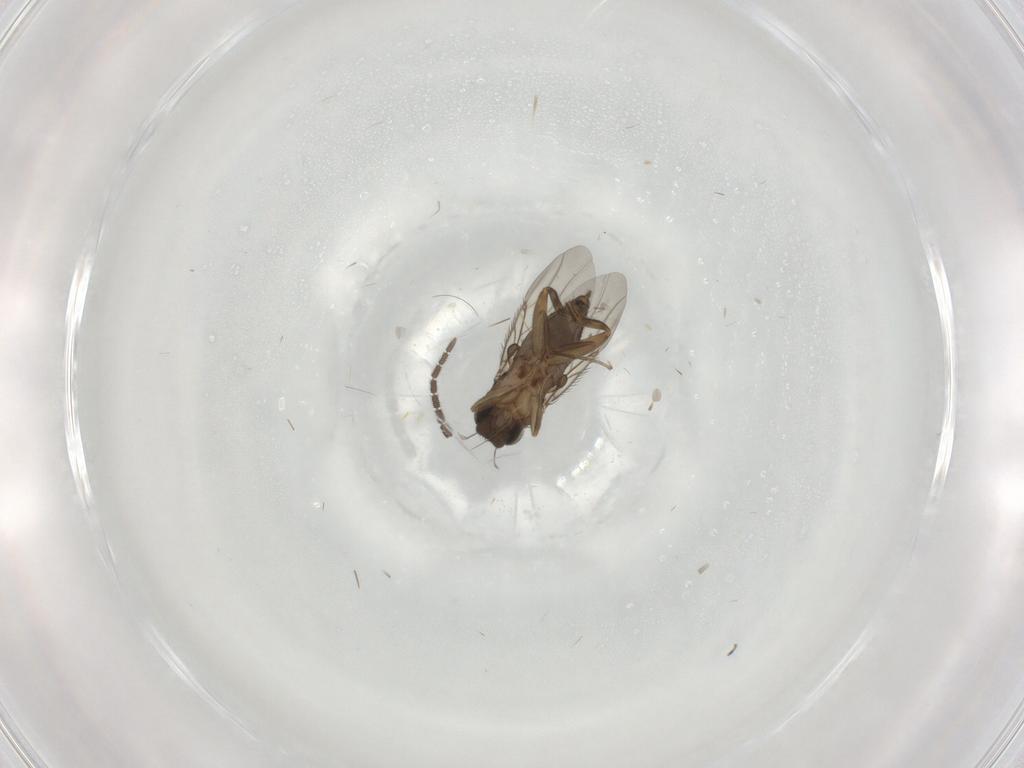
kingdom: Animalia
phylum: Arthropoda
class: Insecta
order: Diptera
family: Phoridae
